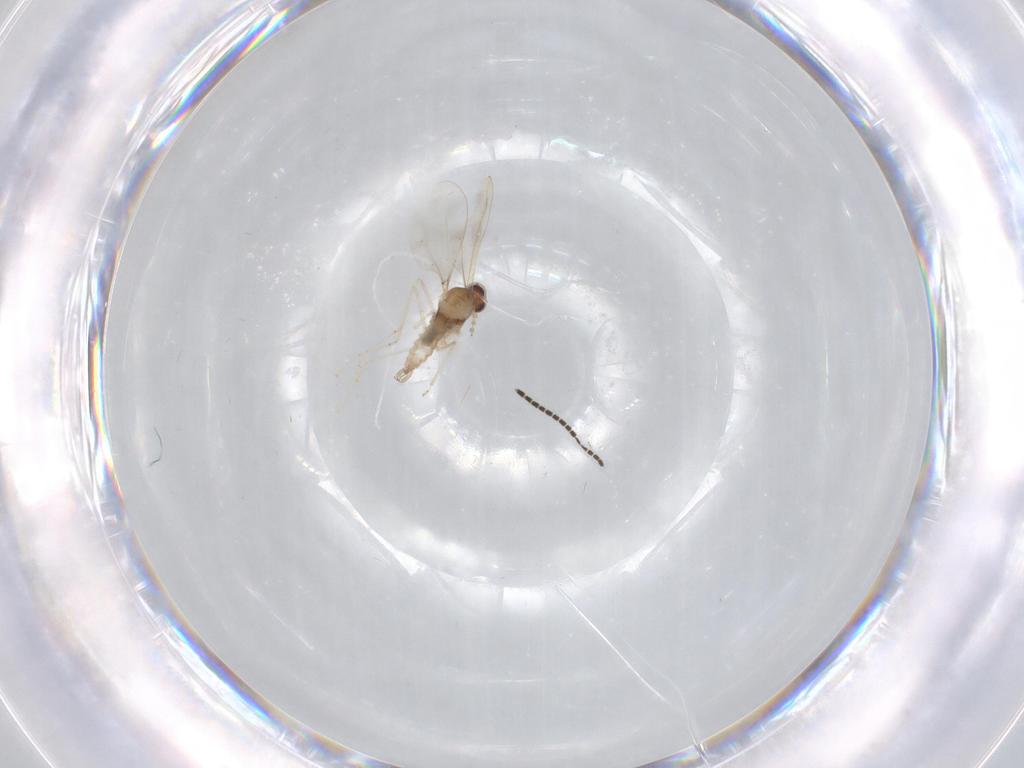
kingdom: Animalia
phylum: Arthropoda
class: Insecta
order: Diptera
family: Sciaridae
